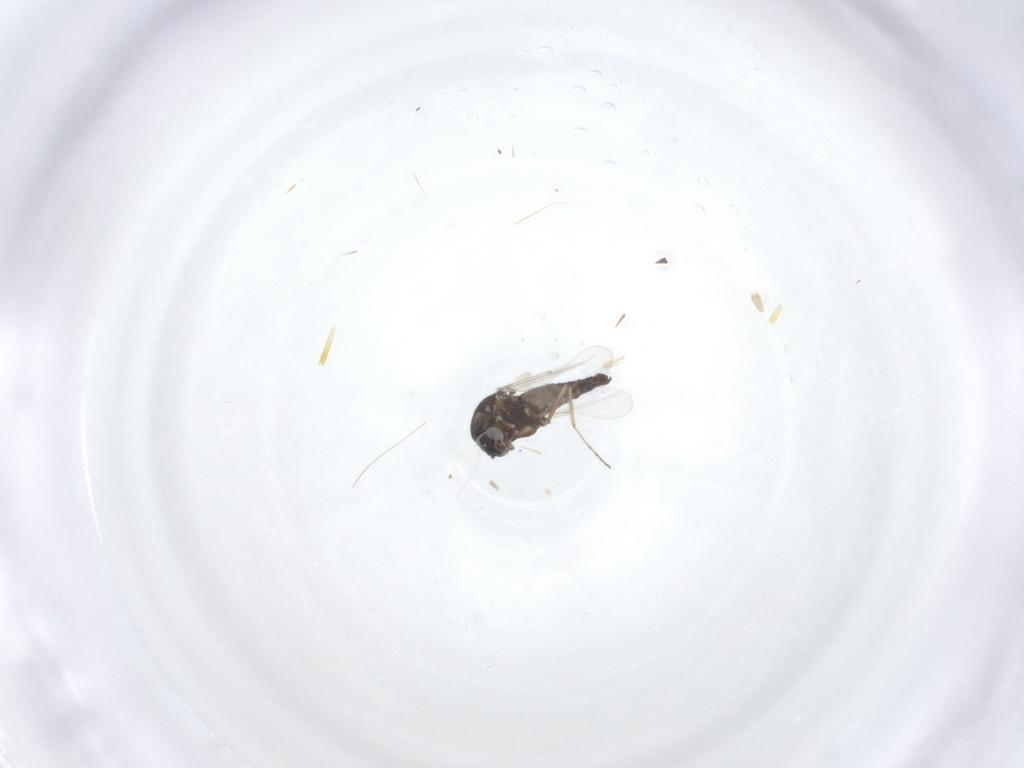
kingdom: Animalia
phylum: Arthropoda
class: Insecta
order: Diptera
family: Ceratopogonidae
